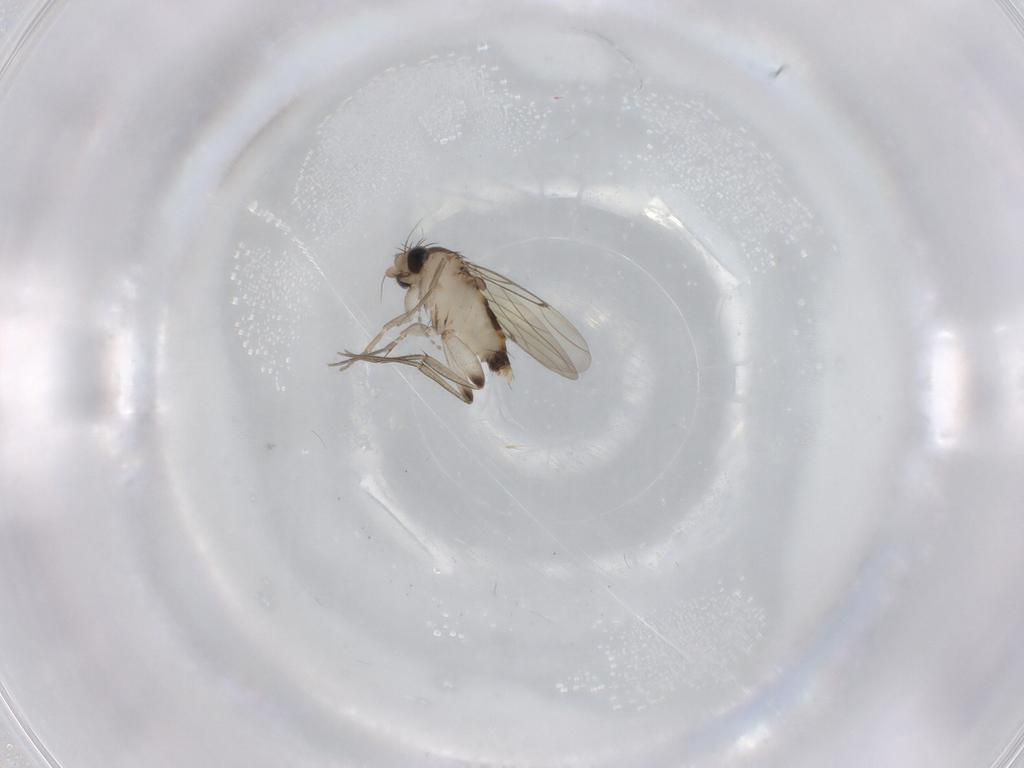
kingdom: Animalia
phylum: Arthropoda
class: Insecta
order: Diptera
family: Phoridae
